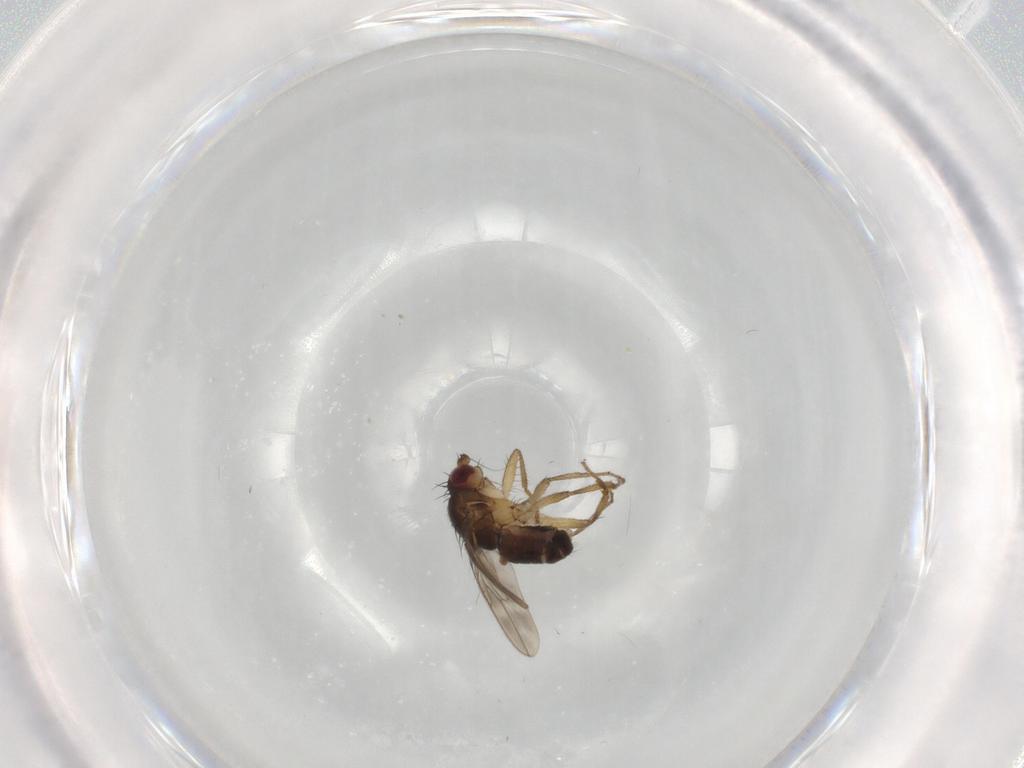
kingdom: Animalia
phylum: Arthropoda
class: Insecta
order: Diptera
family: Sphaeroceridae
